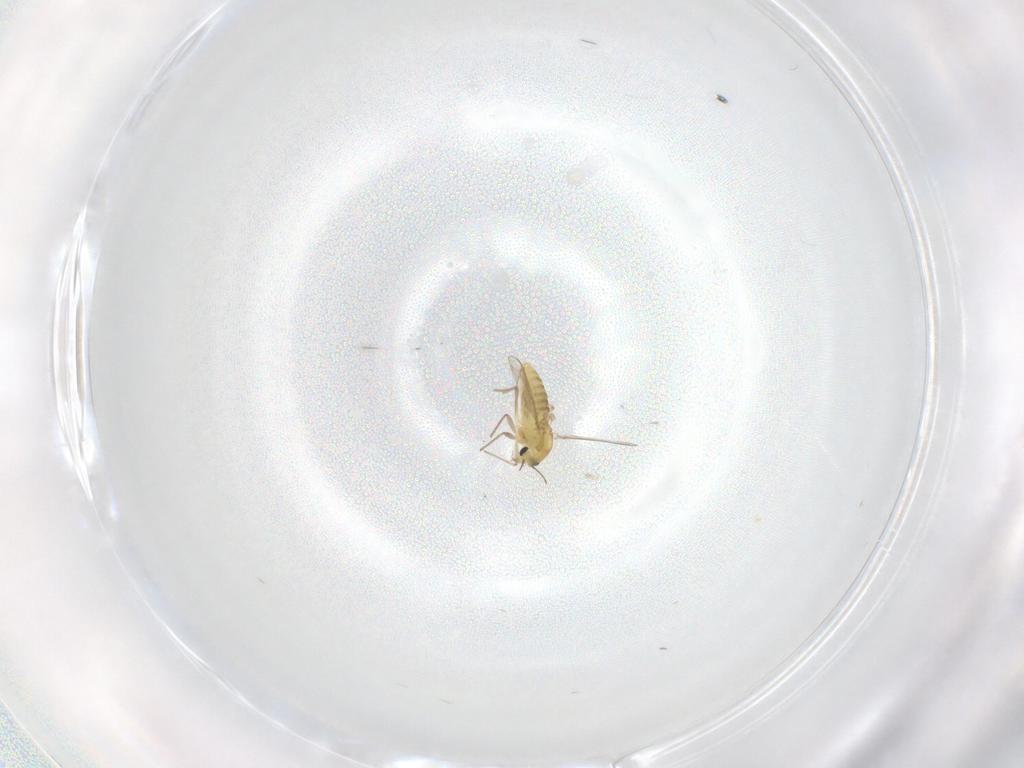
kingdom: Animalia
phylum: Arthropoda
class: Insecta
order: Diptera
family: Chironomidae
